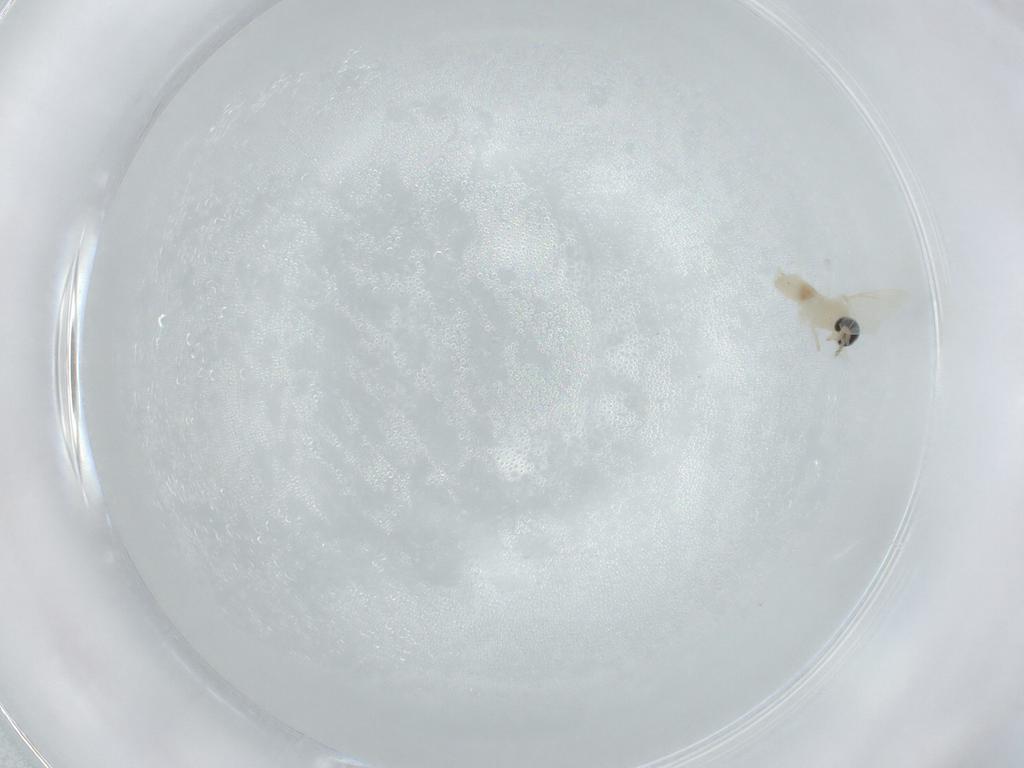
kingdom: Animalia
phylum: Arthropoda
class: Insecta
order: Diptera
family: Cecidomyiidae
